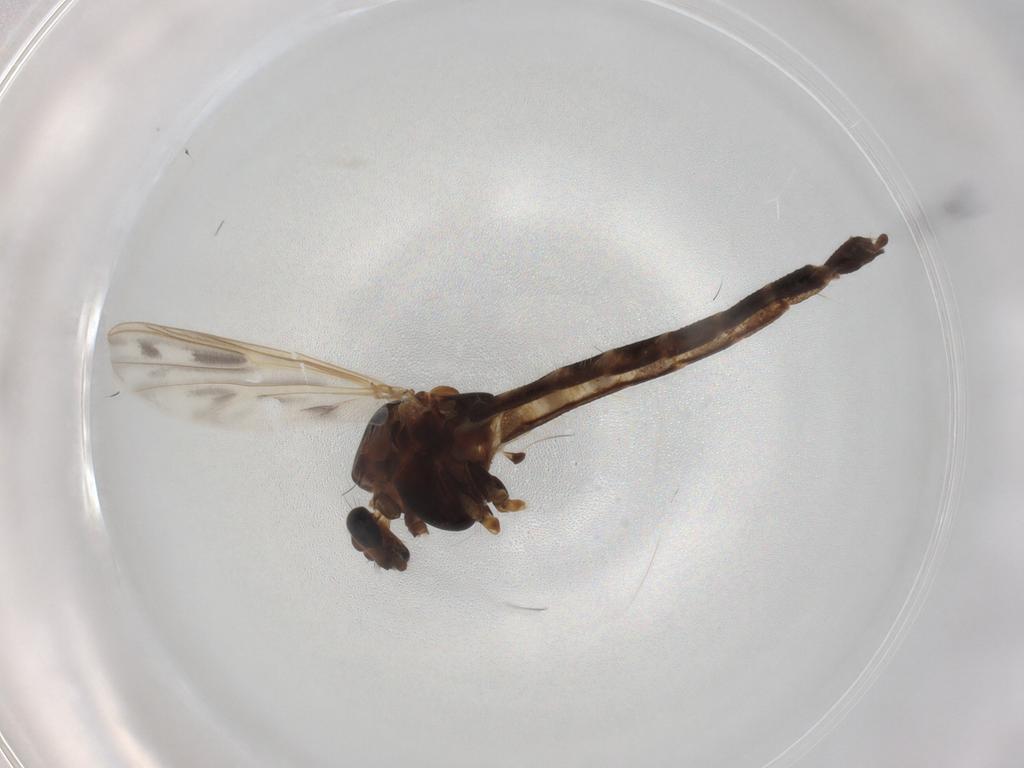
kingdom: Animalia
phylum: Arthropoda
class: Insecta
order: Diptera
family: Chironomidae
